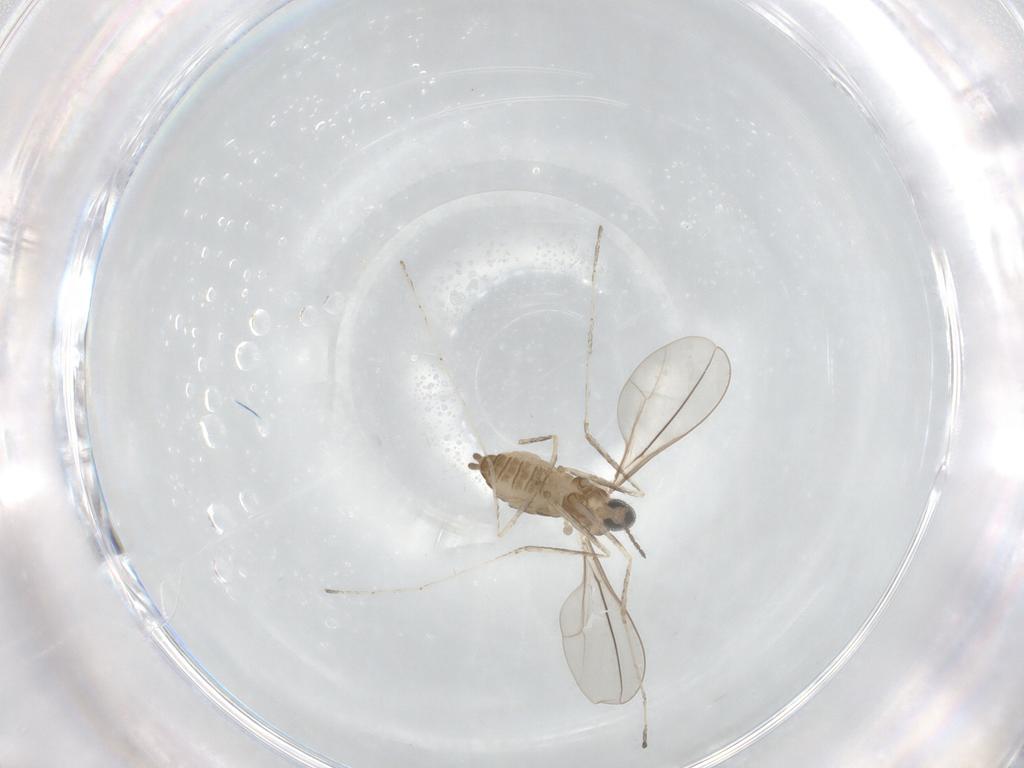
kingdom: Animalia
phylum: Arthropoda
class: Insecta
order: Diptera
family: Cecidomyiidae
